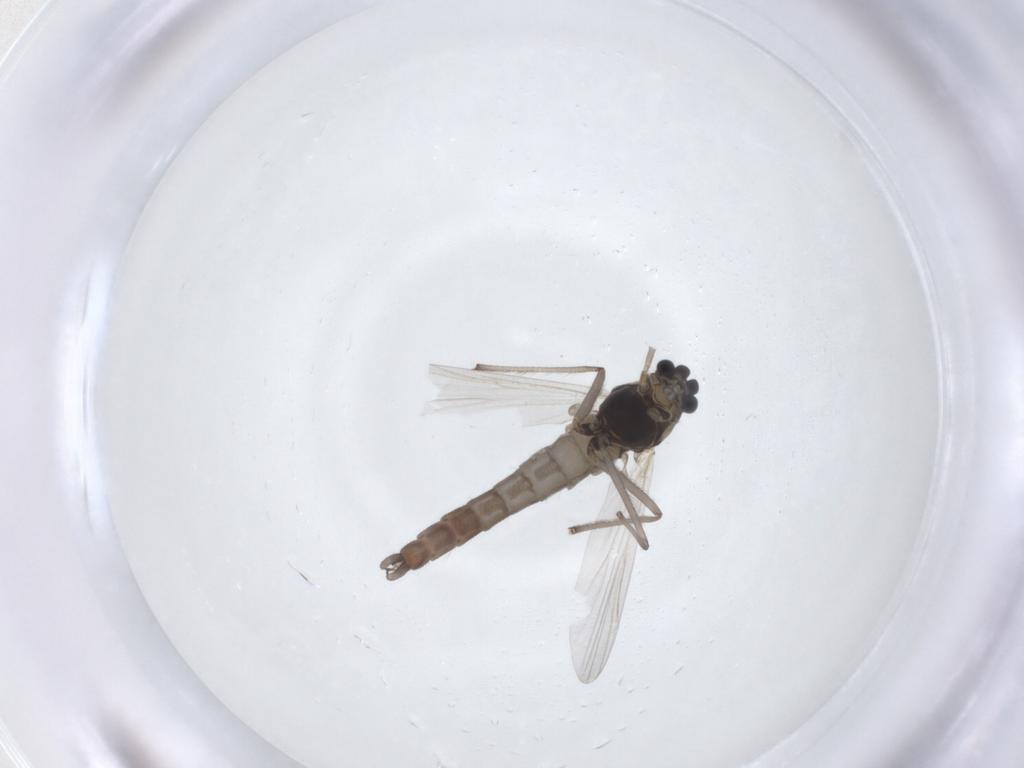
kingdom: Animalia
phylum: Arthropoda
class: Insecta
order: Diptera
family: Chironomidae
